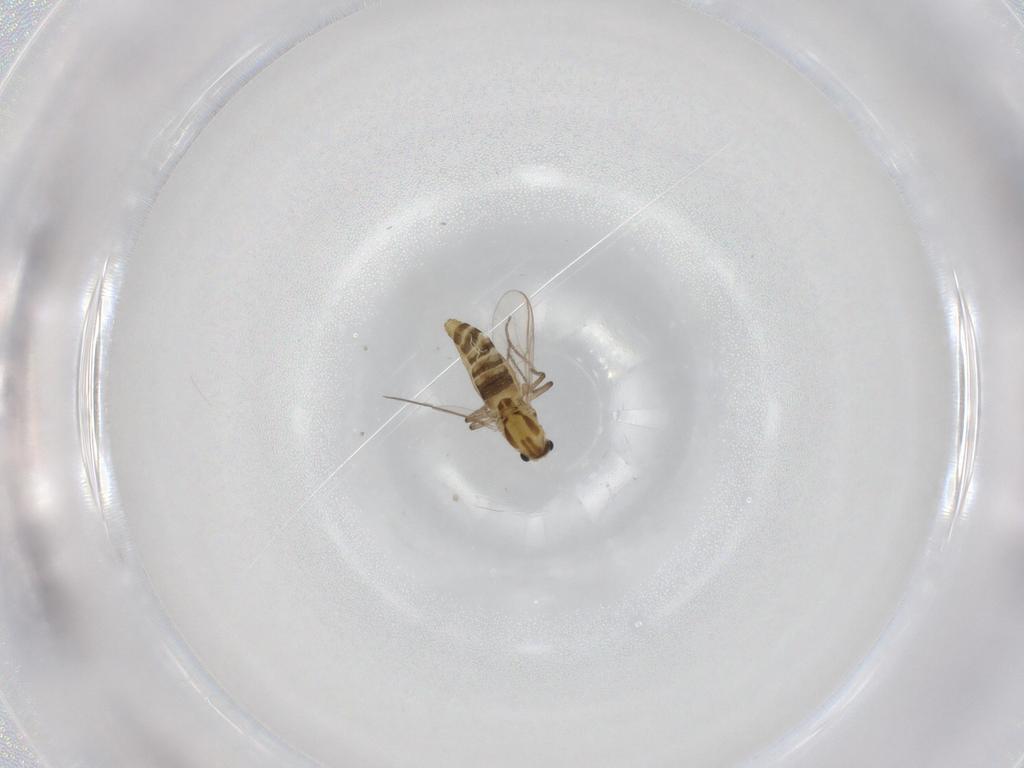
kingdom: Animalia
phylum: Arthropoda
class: Insecta
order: Diptera
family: Chironomidae
